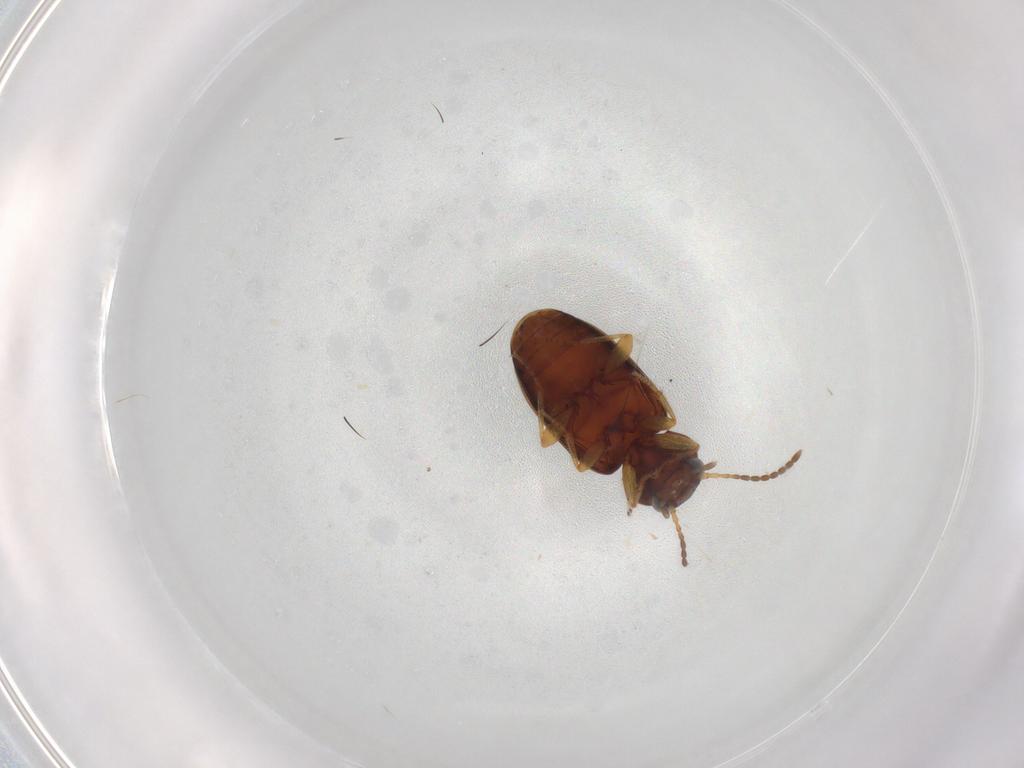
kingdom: Animalia
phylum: Arthropoda
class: Insecta
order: Coleoptera
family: Carabidae
